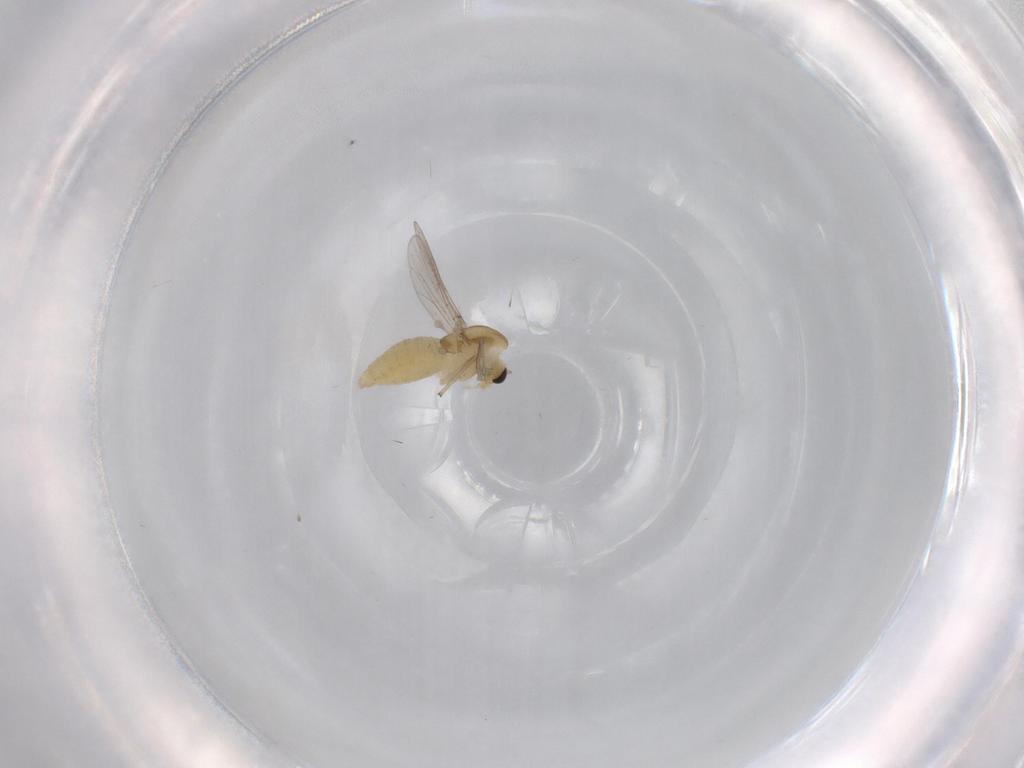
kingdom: Animalia
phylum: Arthropoda
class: Insecta
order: Diptera
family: Chironomidae
